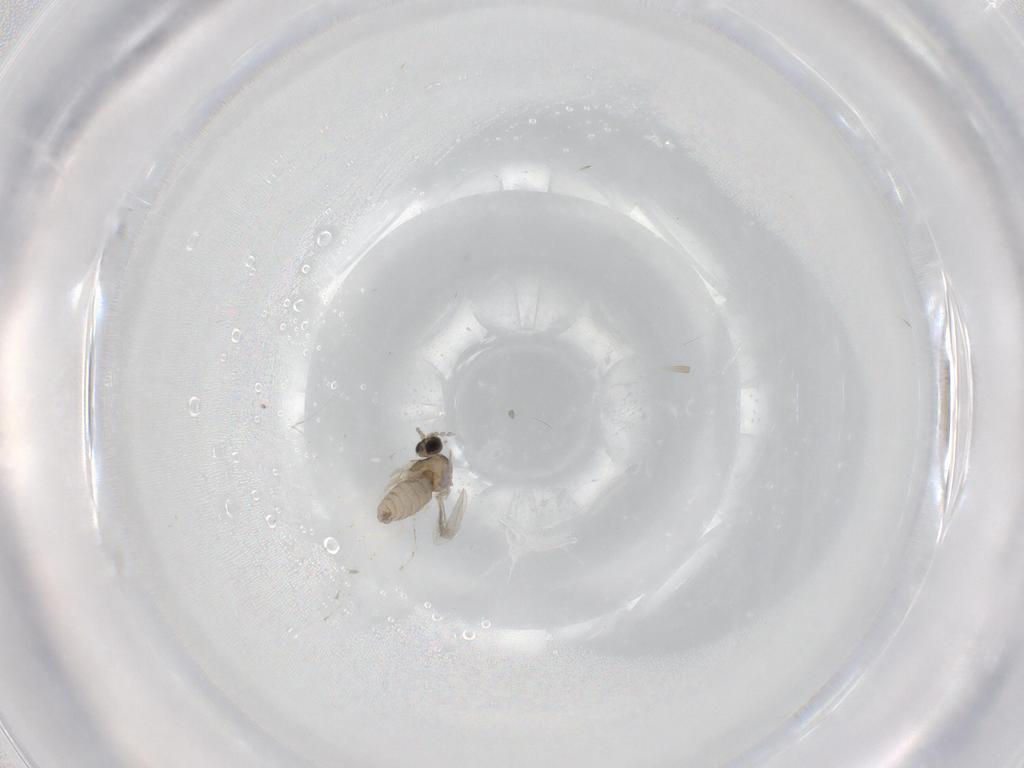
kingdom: Animalia
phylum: Arthropoda
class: Insecta
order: Diptera
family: Cecidomyiidae
